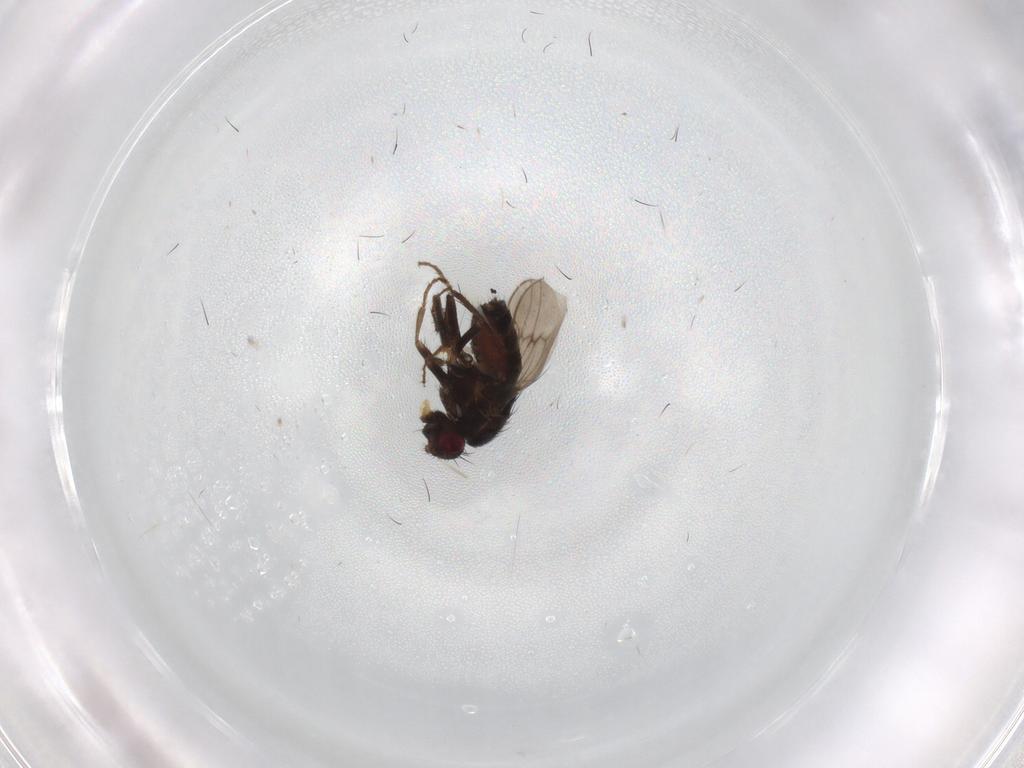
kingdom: Animalia
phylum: Arthropoda
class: Insecta
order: Diptera
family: Sphaeroceridae
